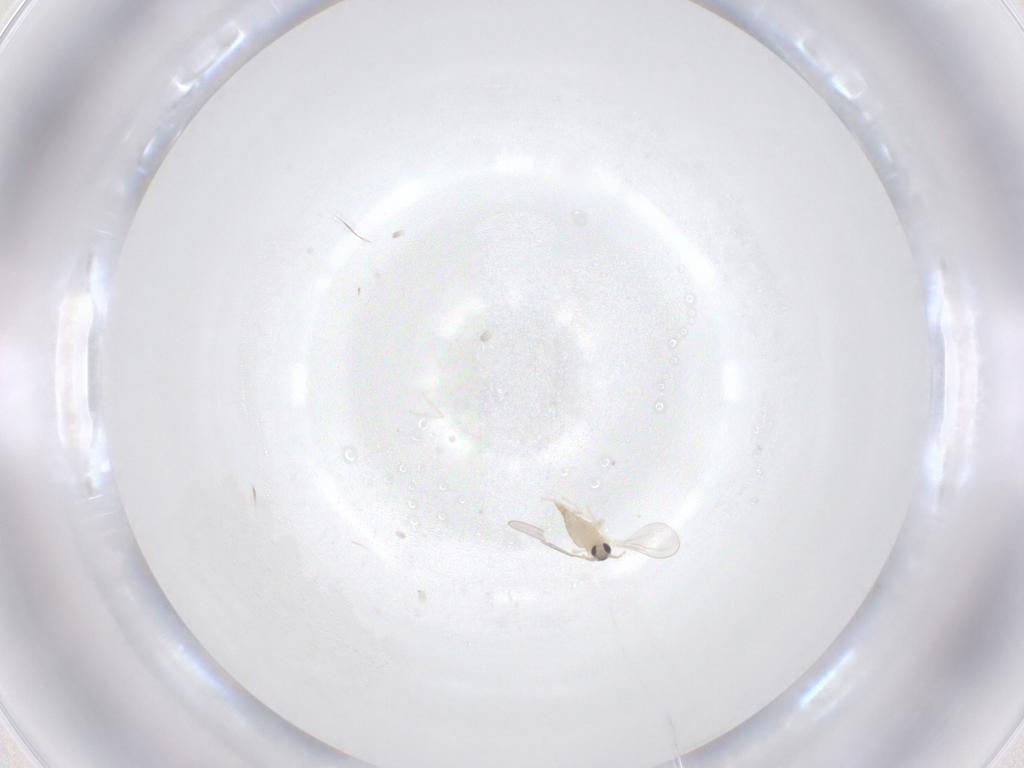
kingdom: Animalia
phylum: Arthropoda
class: Insecta
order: Diptera
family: Cecidomyiidae
